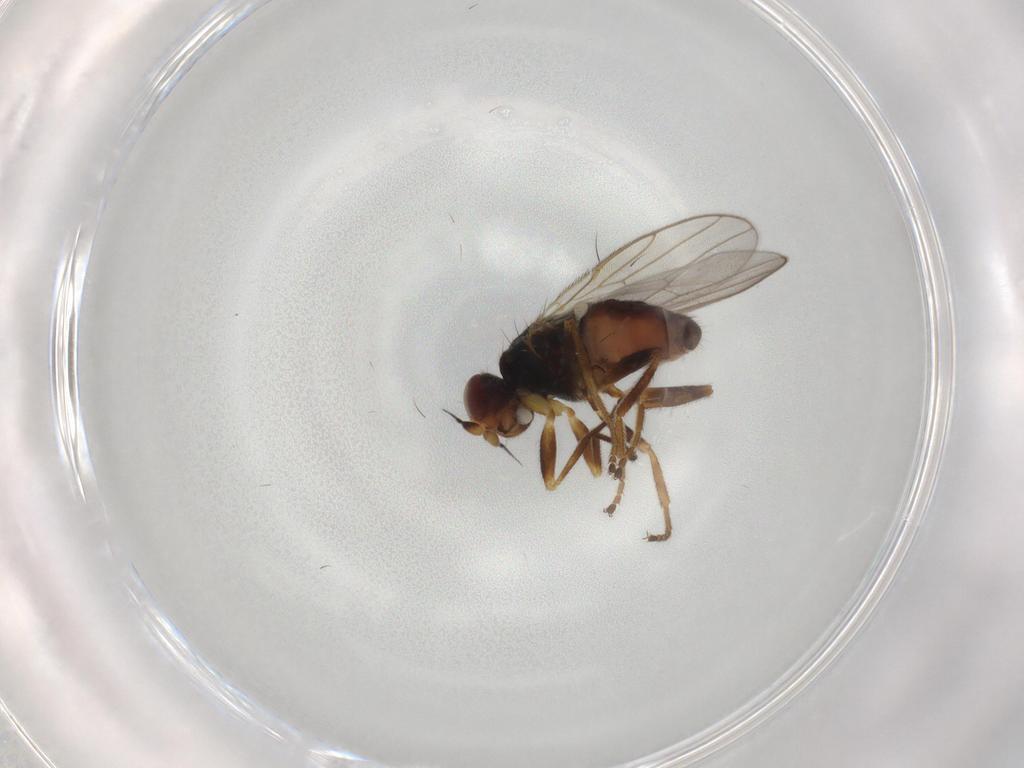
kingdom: Animalia
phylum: Arthropoda
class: Insecta
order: Diptera
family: Chloropidae
